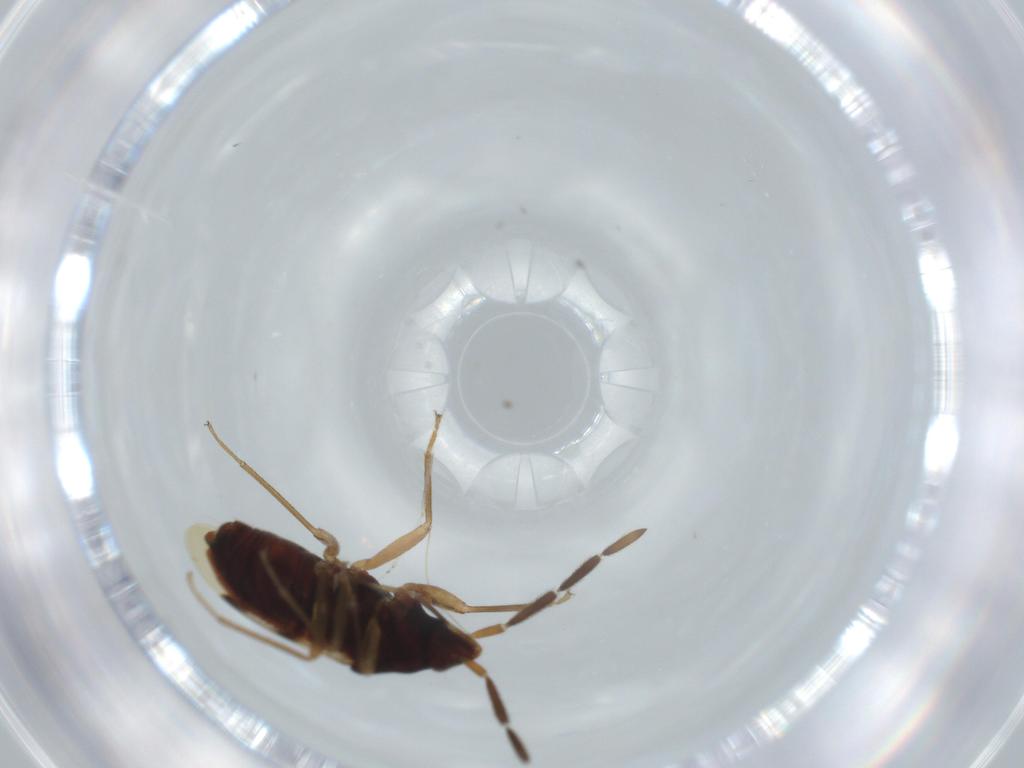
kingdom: Animalia
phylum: Arthropoda
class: Insecta
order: Hemiptera
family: Rhyparochromidae
